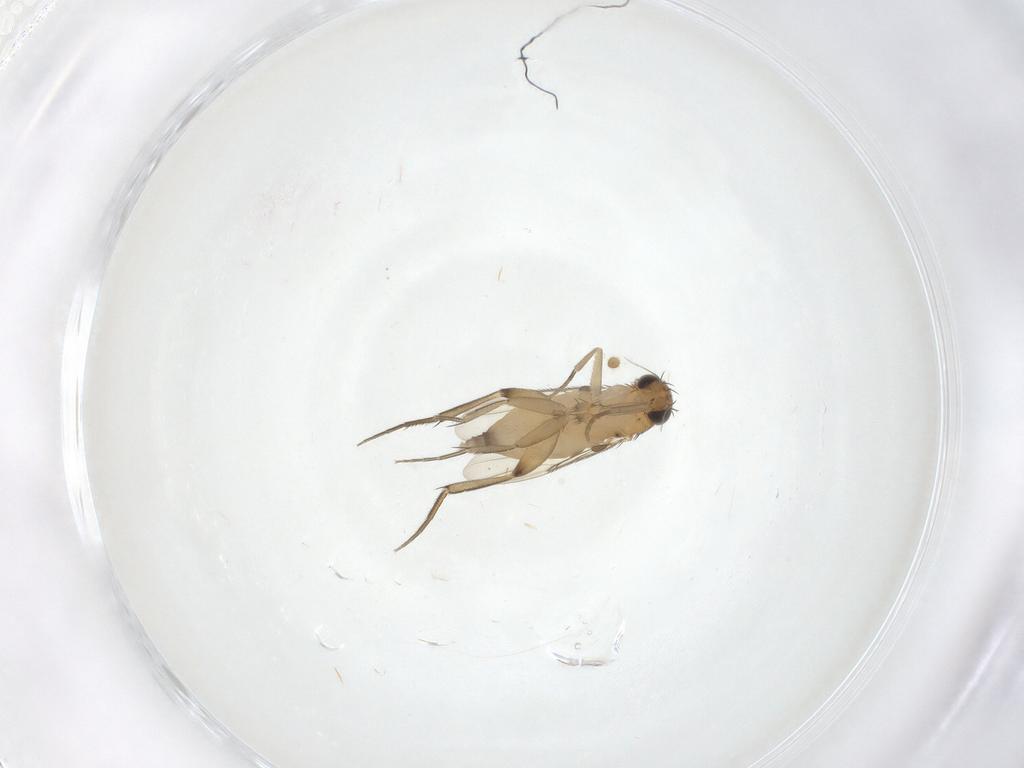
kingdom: Animalia
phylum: Arthropoda
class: Insecta
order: Diptera
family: Phoridae
